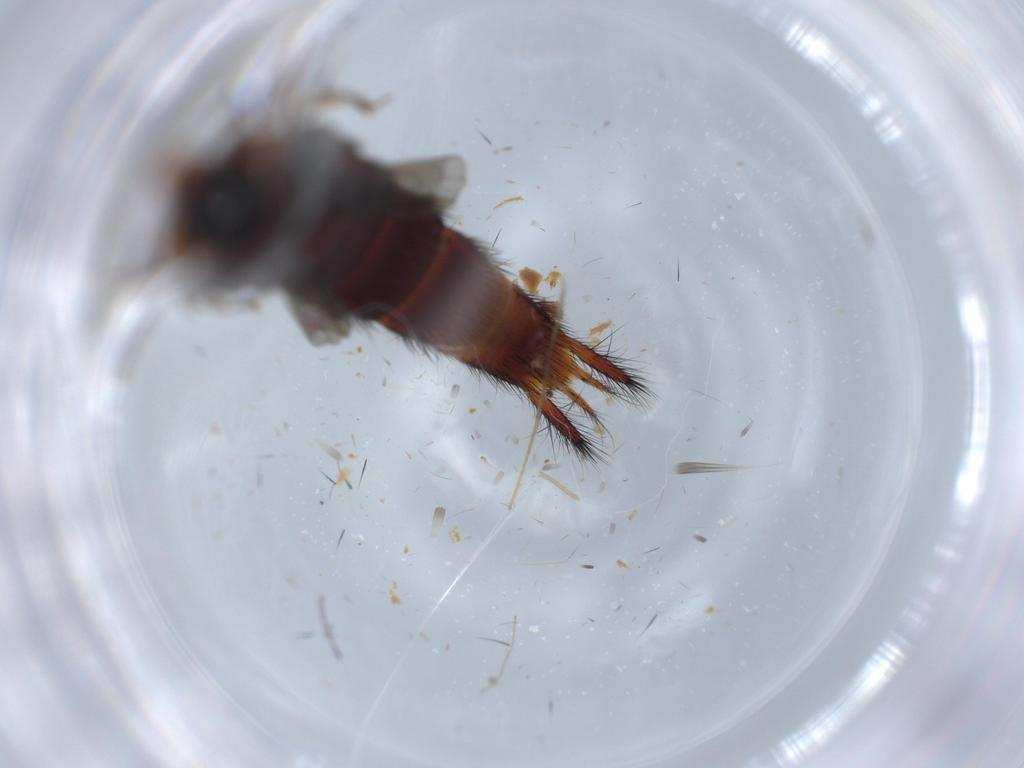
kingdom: Animalia
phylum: Arthropoda
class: Insecta
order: Coleoptera
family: Staphylinidae
